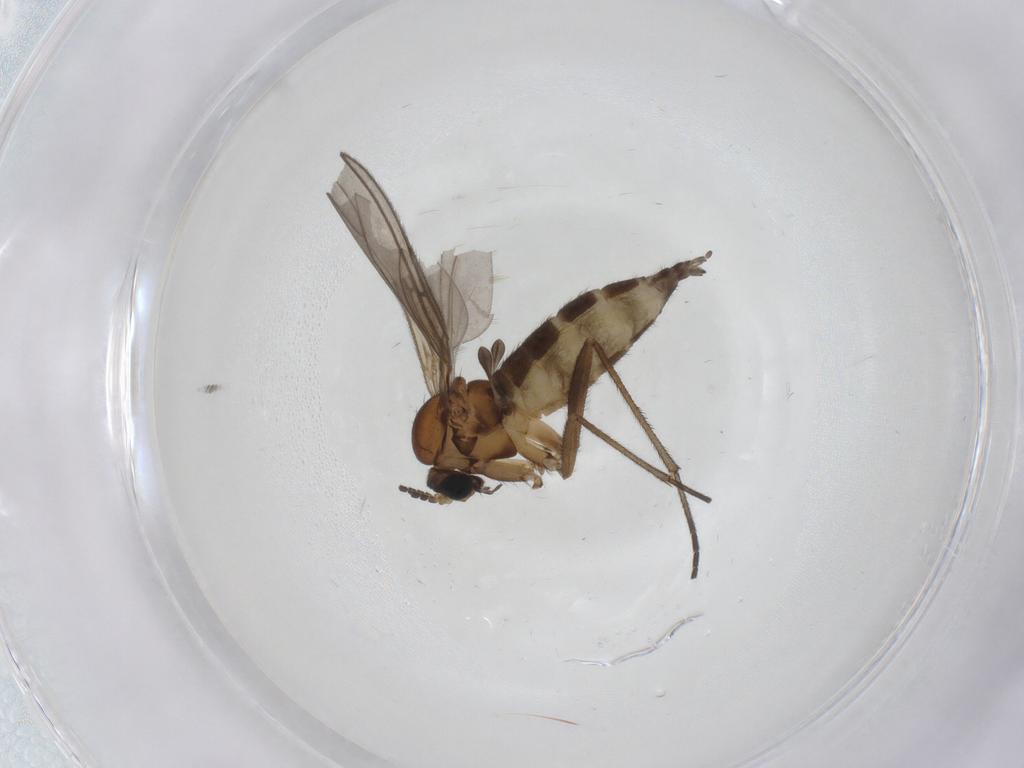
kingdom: Animalia
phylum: Arthropoda
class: Insecta
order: Diptera
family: Sciaridae
